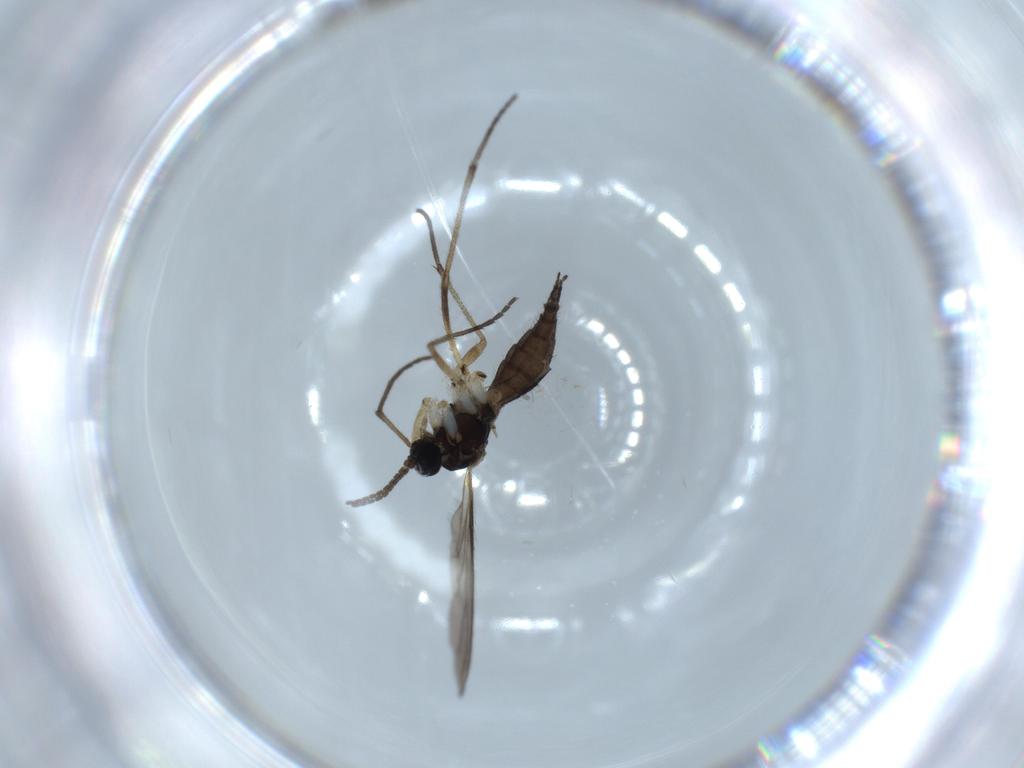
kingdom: Animalia
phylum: Arthropoda
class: Insecta
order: Diptera
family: Sciaridae
